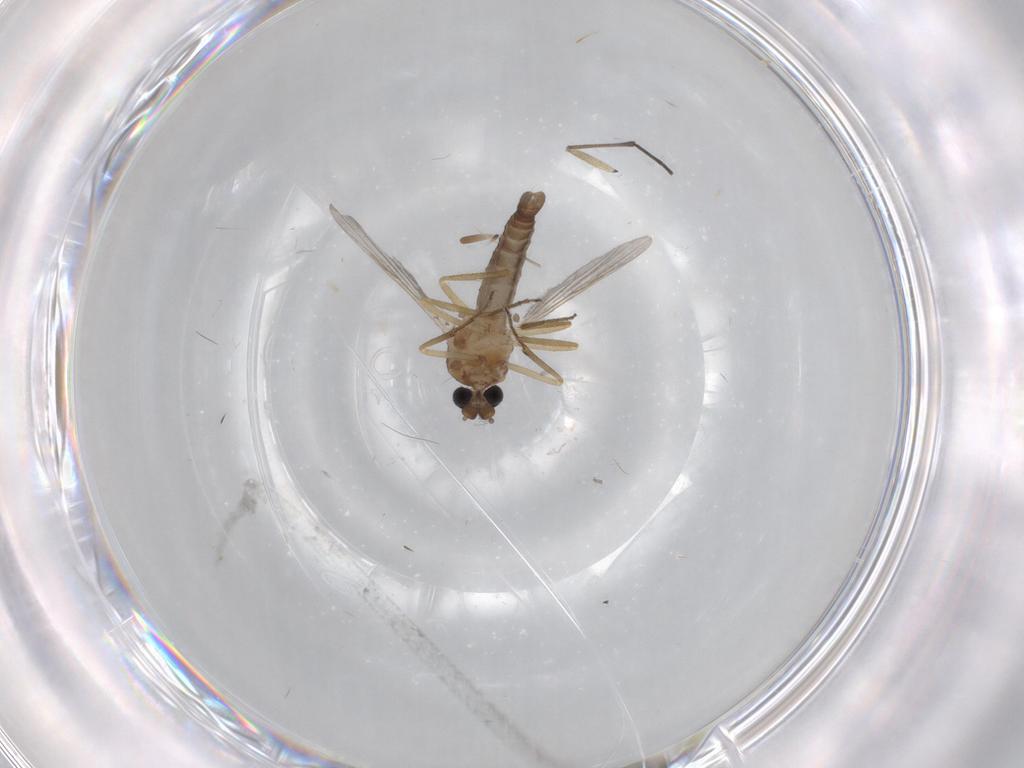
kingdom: Animalia
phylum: Arthropoda
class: Insecta
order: Diptera
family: Chironomidae
